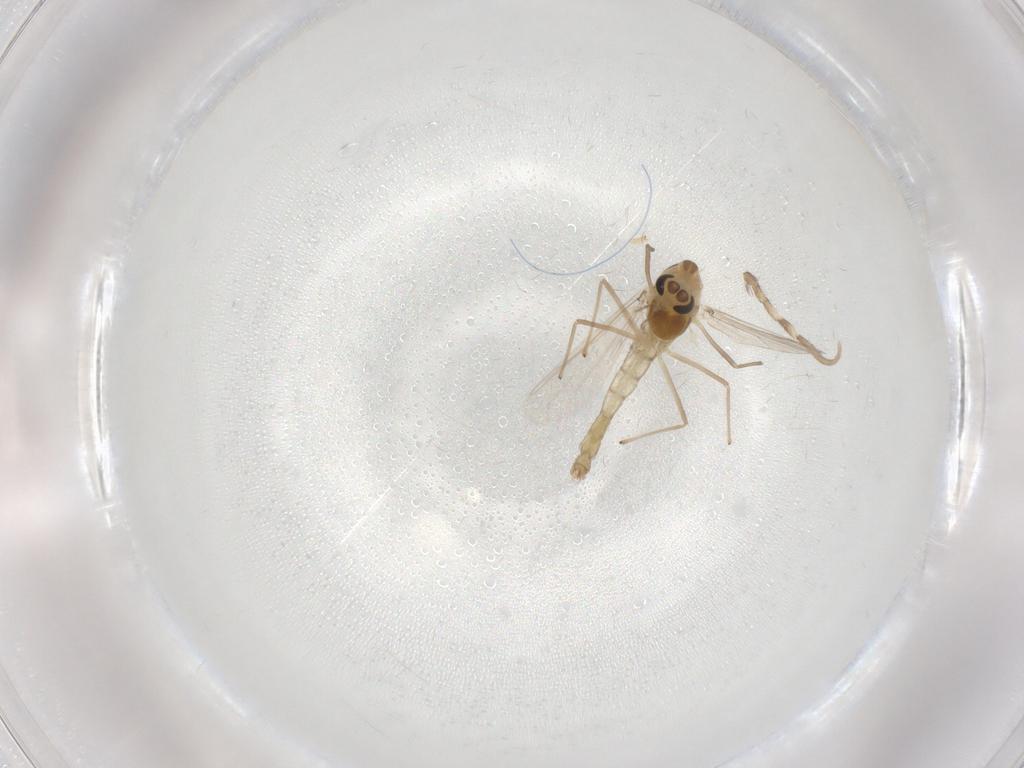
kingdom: Animalia
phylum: Arthropoda
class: Insecta
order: Diptera
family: Chironomidae
